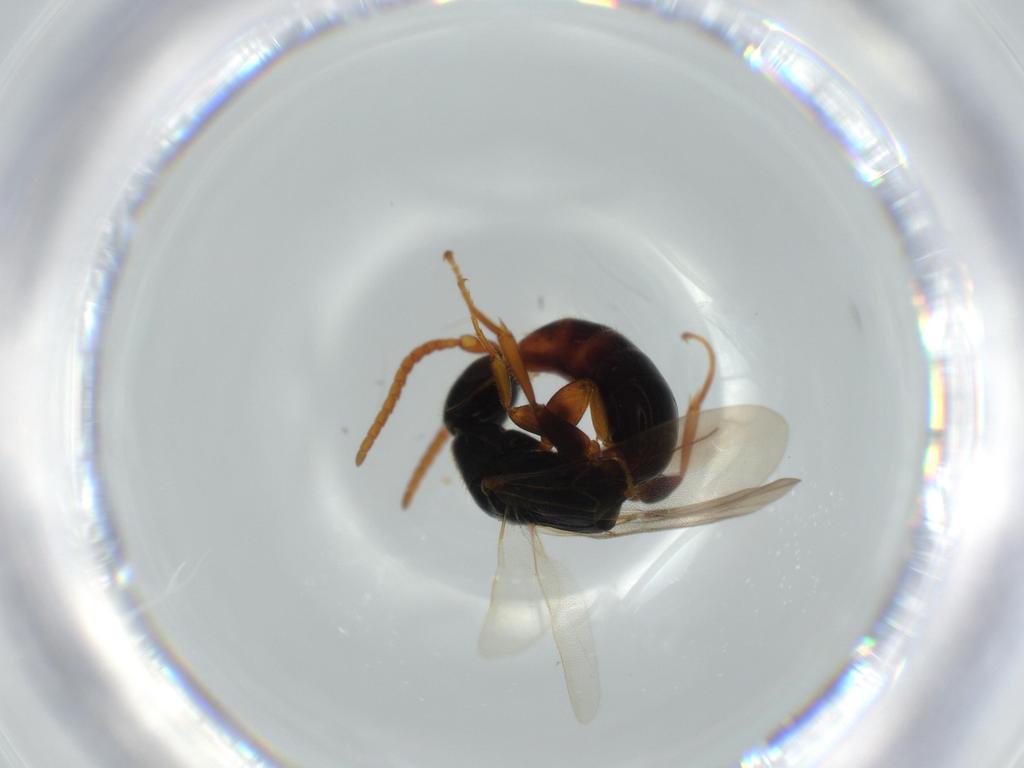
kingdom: Animalia
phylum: Arthropoda
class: Insecta
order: Hymenoptera
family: Bethylidae
